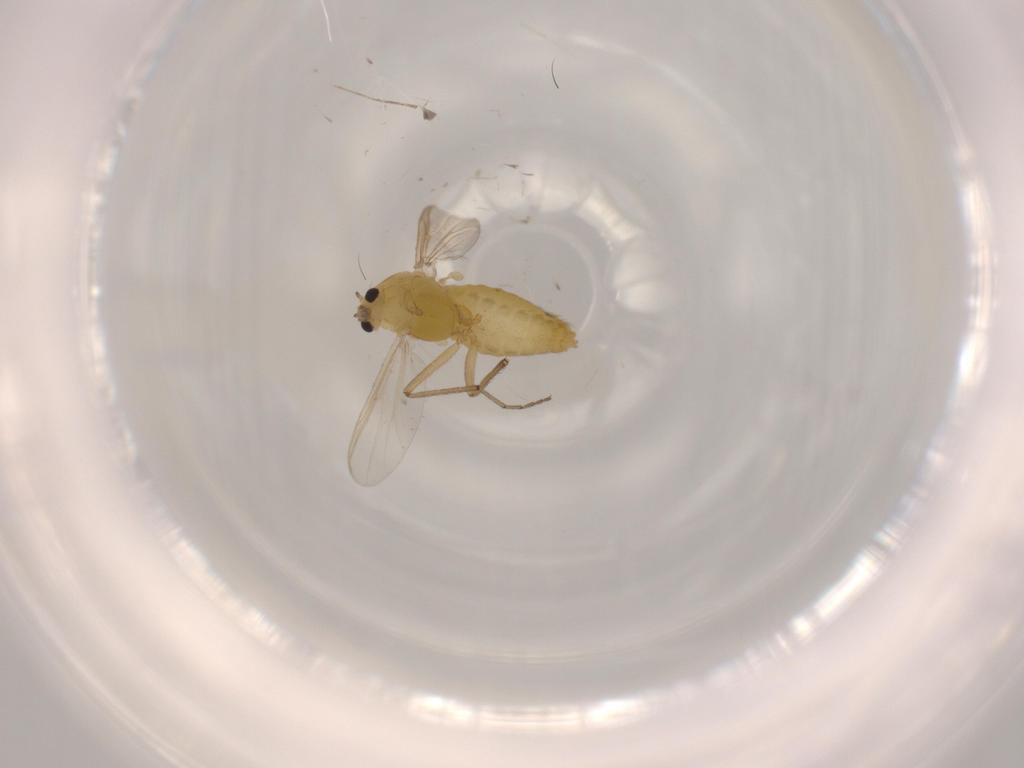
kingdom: Animalia
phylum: Arthropoda
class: Insecta
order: Diptera
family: Chironomidae
